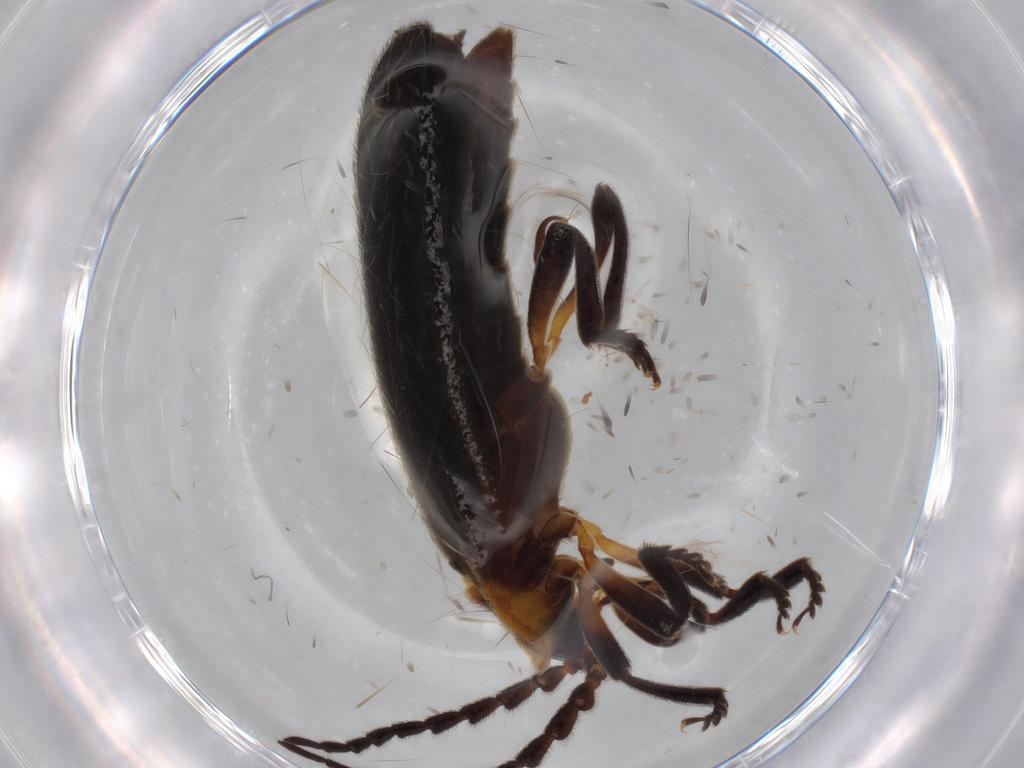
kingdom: Animalia
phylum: Arthropoda
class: Insecta
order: Coleoptera
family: Lycidae
